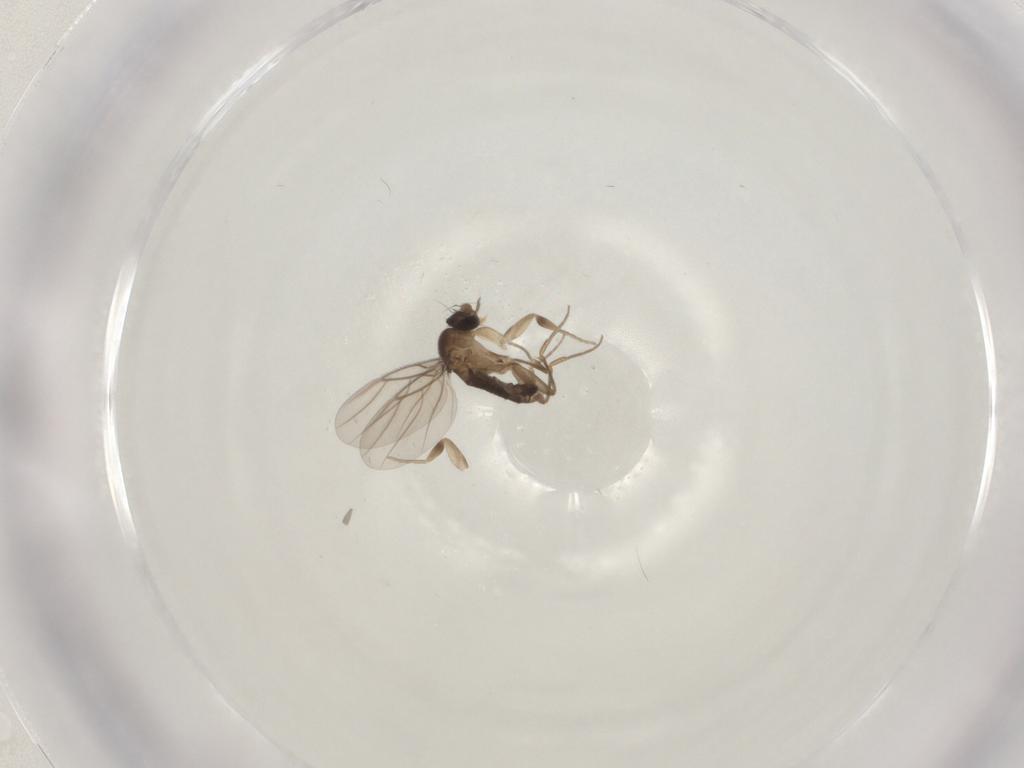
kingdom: Animalia
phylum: Arthropoda
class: Insecta
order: Diptera
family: Phoridae
